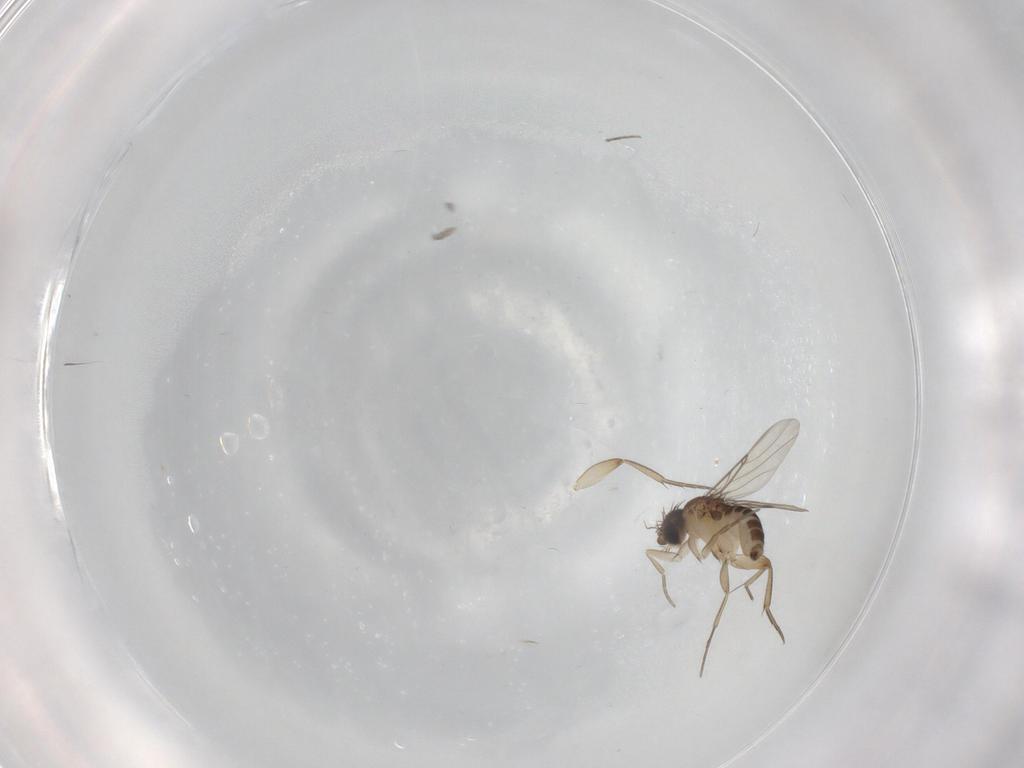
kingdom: Animalia
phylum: Arthropoda
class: Insecta
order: Diptera
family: Phoridae
